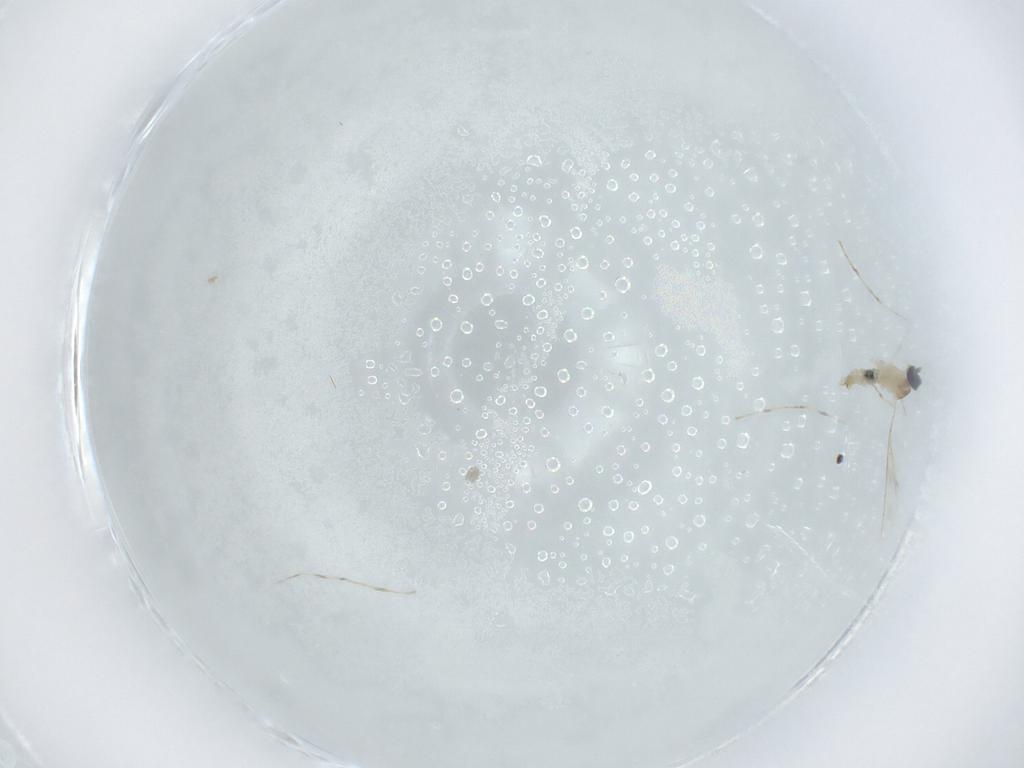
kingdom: Animalia
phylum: Arthropoda
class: Insecta
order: Diptera
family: Cecidomyiidae
